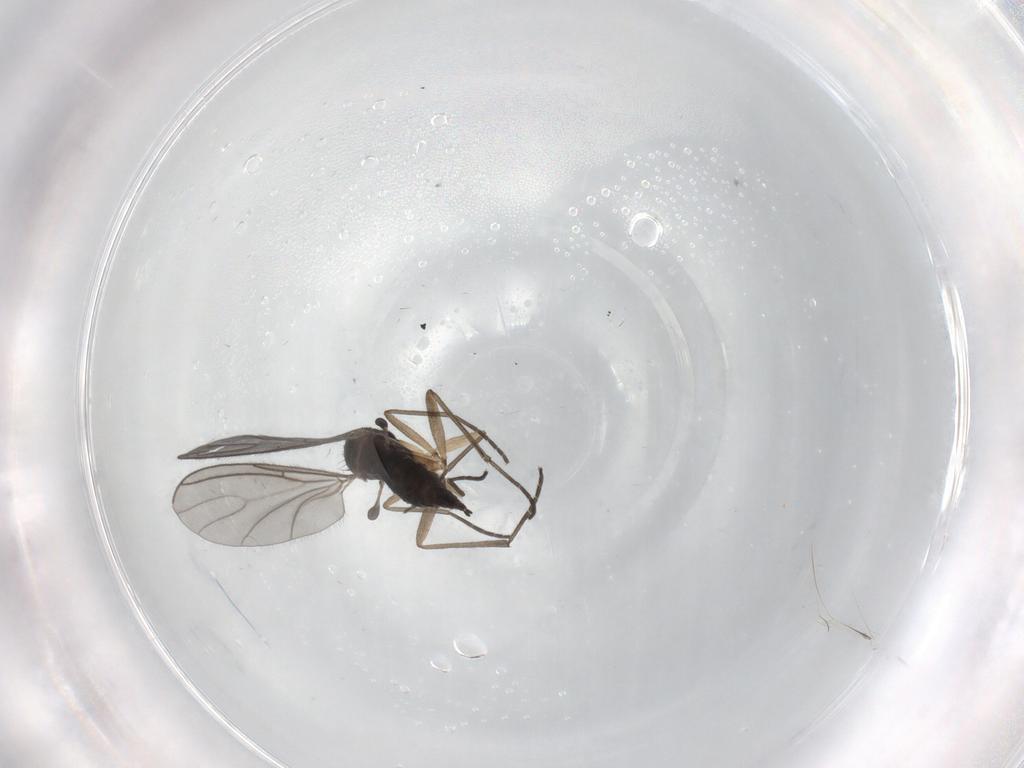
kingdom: Animalia
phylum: Arthropoda
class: Insecta
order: Diptera
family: Sciaridae
